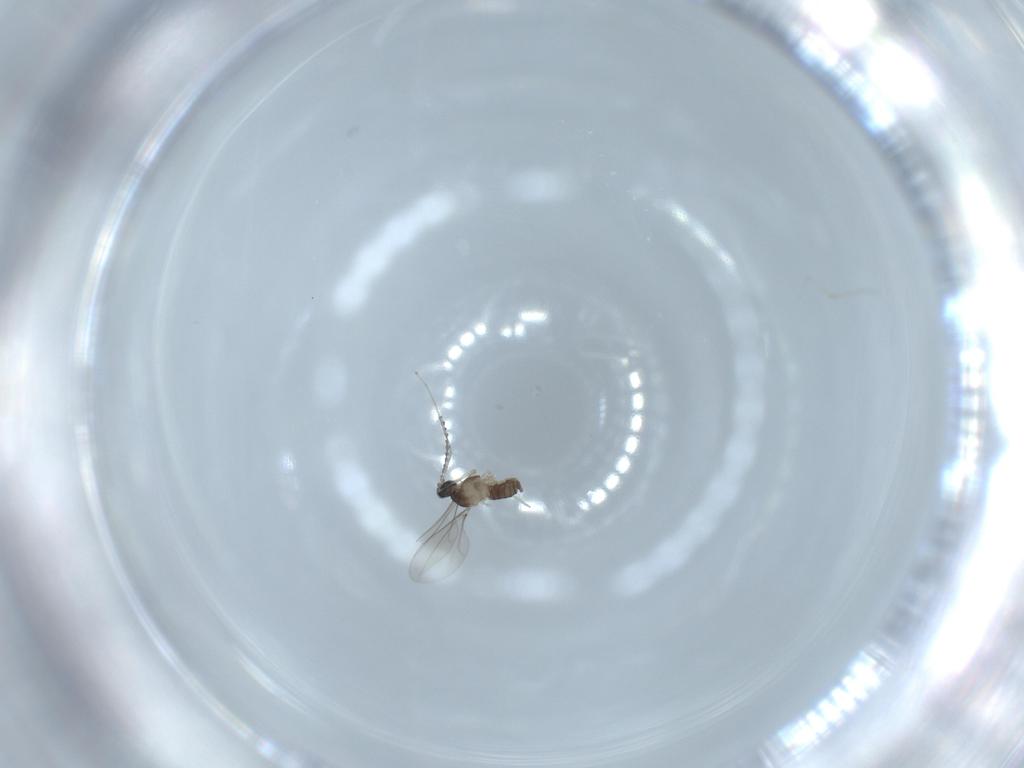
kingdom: Animalia
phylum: Arthropoda
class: Insecta
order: Diptera
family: Cecidomyiidae
